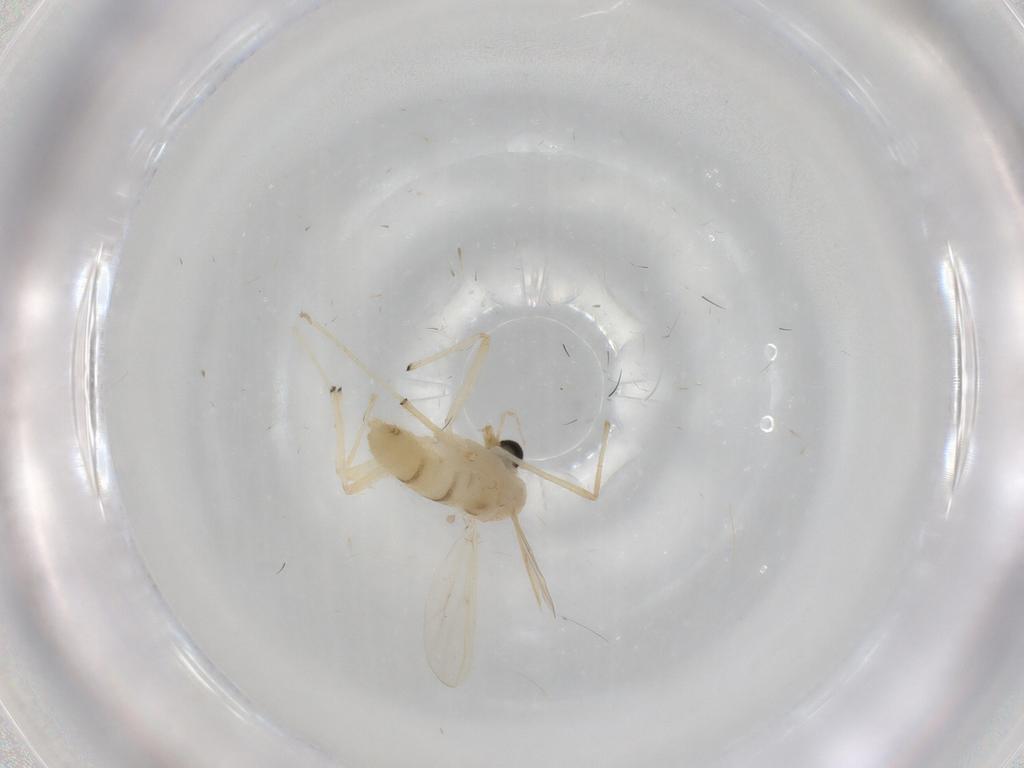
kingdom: Animalia
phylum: Arthropoda
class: Insecta
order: Diptera
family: Chironomidae
